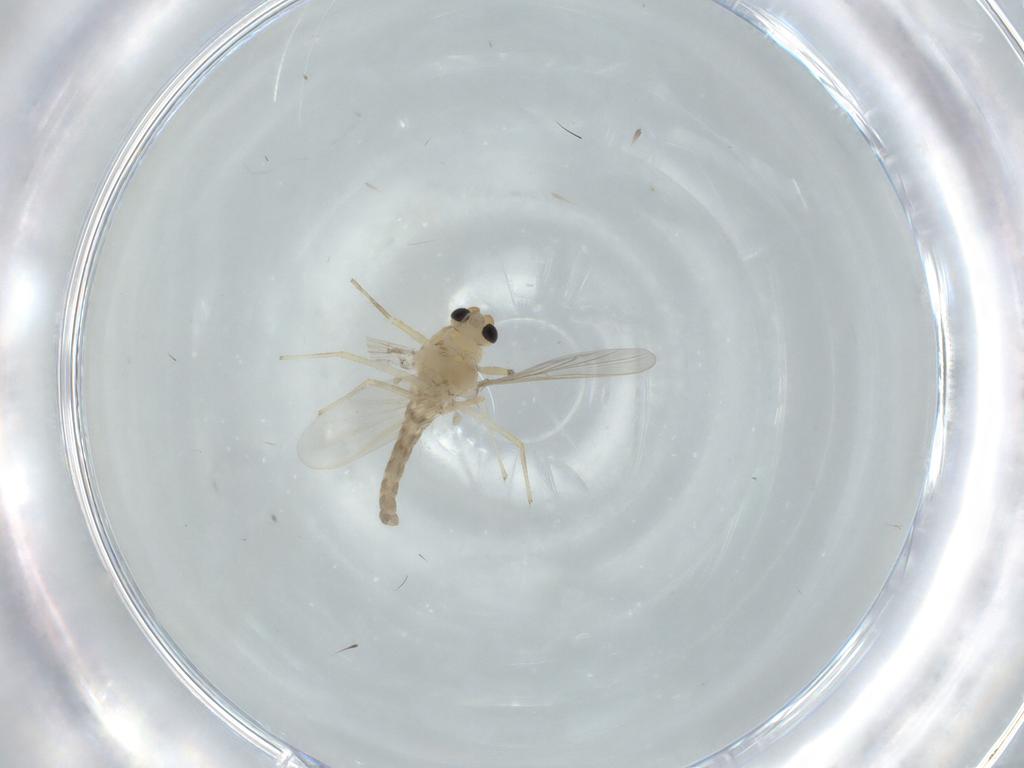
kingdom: Animalia
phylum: Arthropoda
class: Insecta
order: Diptera
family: Chironomidae
